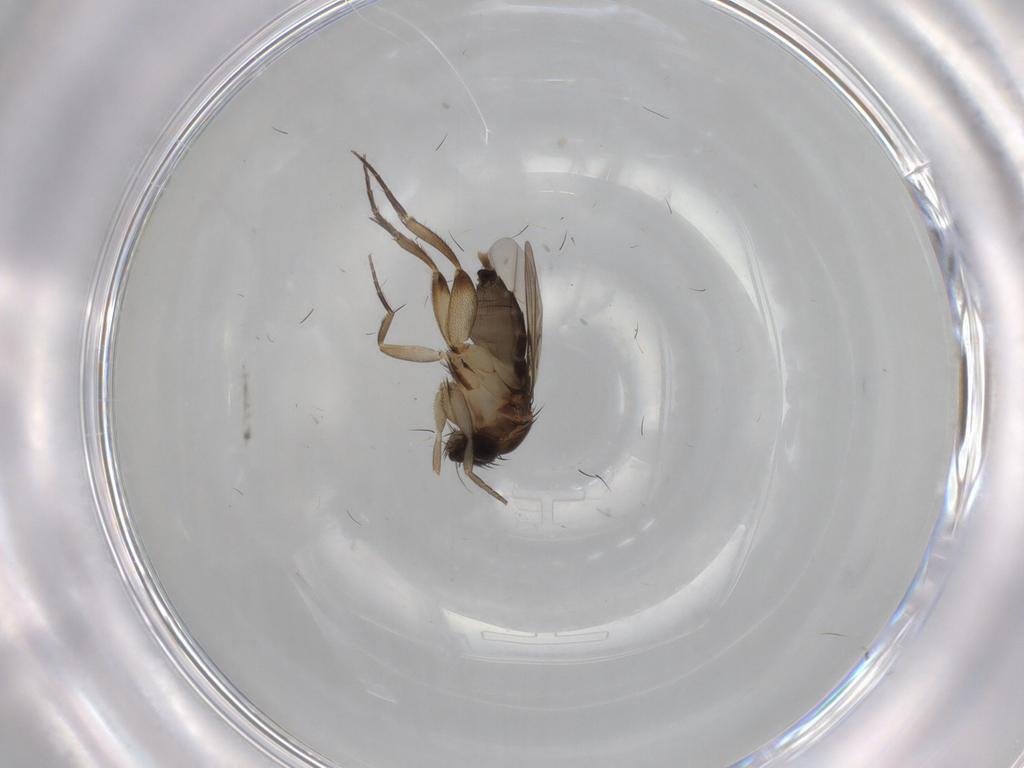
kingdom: Animalia
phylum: Arthropoda
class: Insecta
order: Diptera
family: Phoridae
